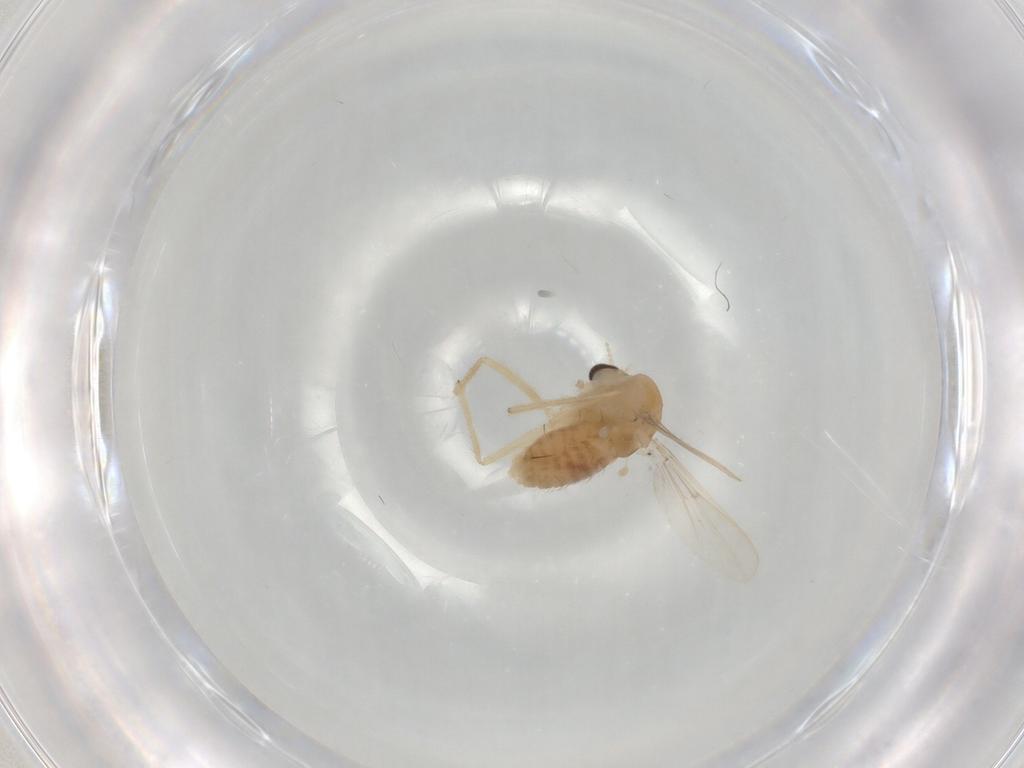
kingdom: Animalia
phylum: Arthropoda
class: Insecta
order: Diptera
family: Chironomidae
